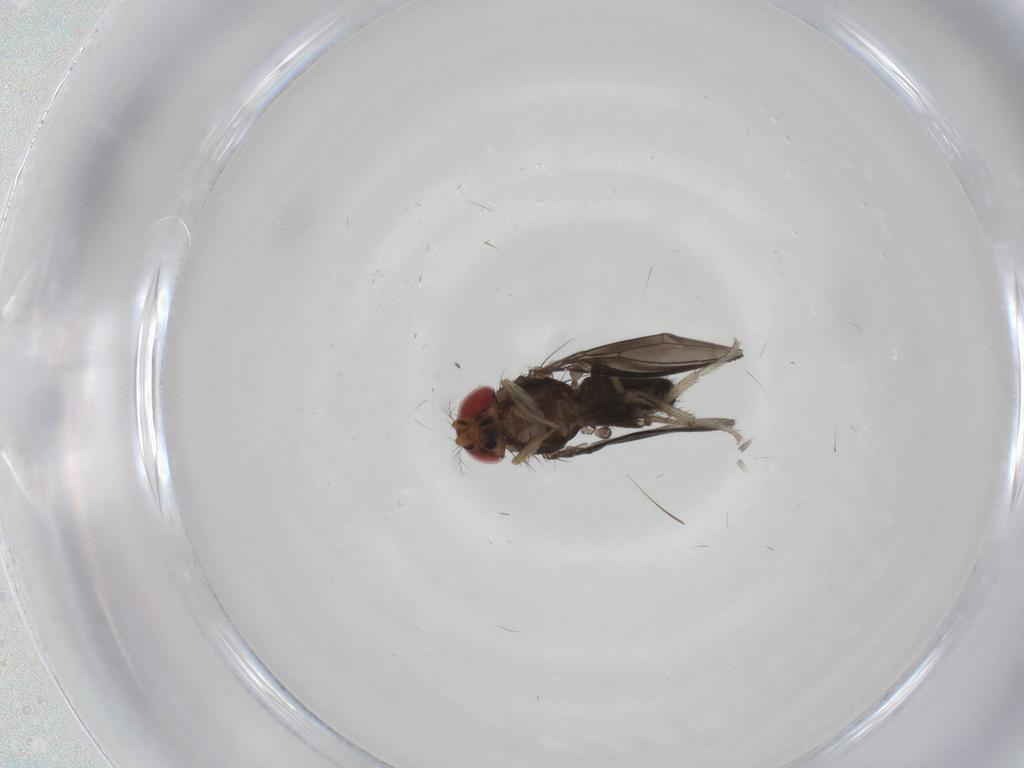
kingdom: Animalia
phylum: Arthropoda
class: Insecta
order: Diptera
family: Drosophilidae
